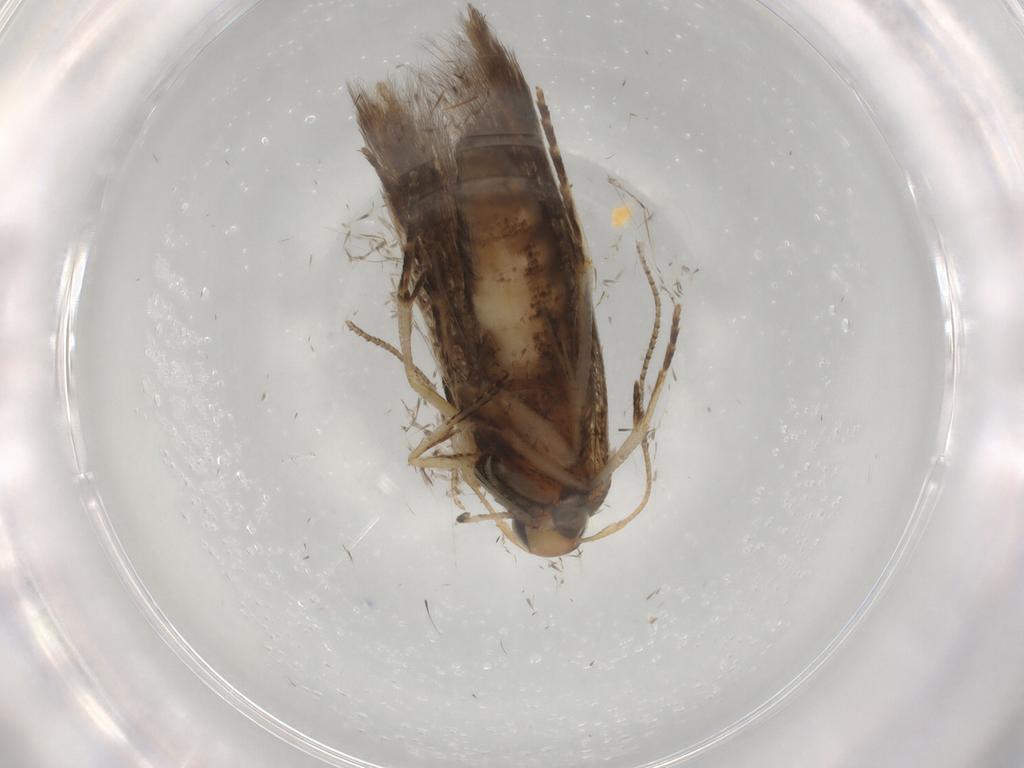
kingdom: Animalia
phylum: Arthropoda
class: Insecta
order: Lepidoptera
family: Cosmopterigidae
